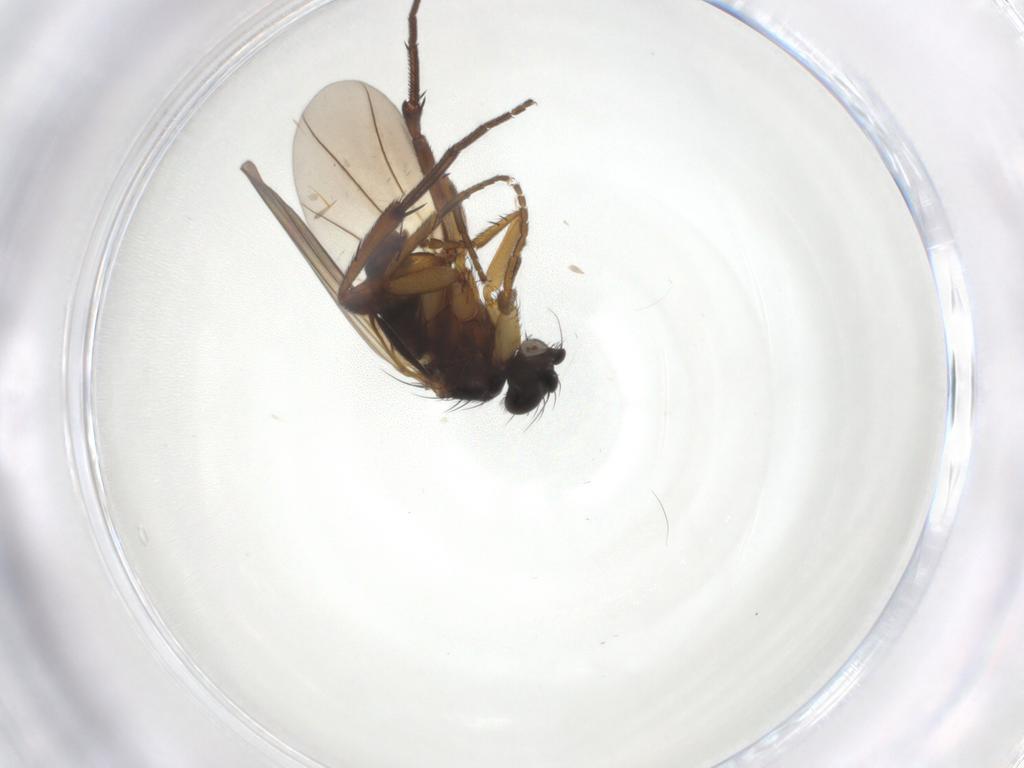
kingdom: Animalia
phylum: Arthropoda
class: Insecta
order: Diptera
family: Phoridae
